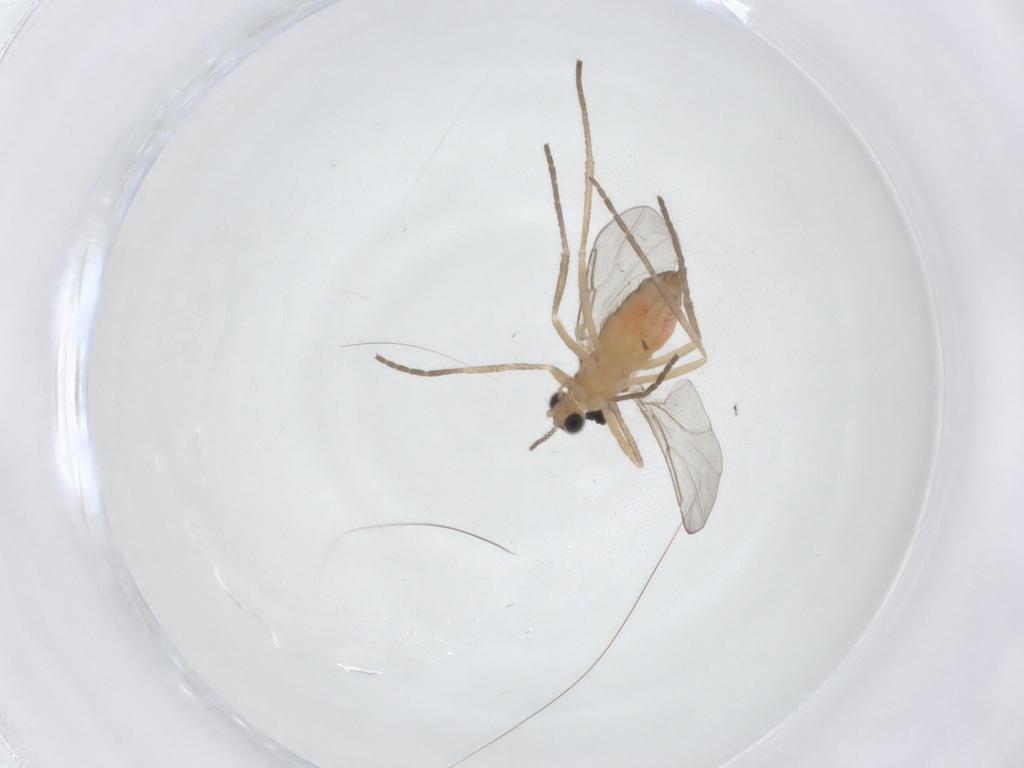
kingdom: Animalia
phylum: Arthropoda
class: Insecta
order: Diptera
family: Cecidomyiidae
